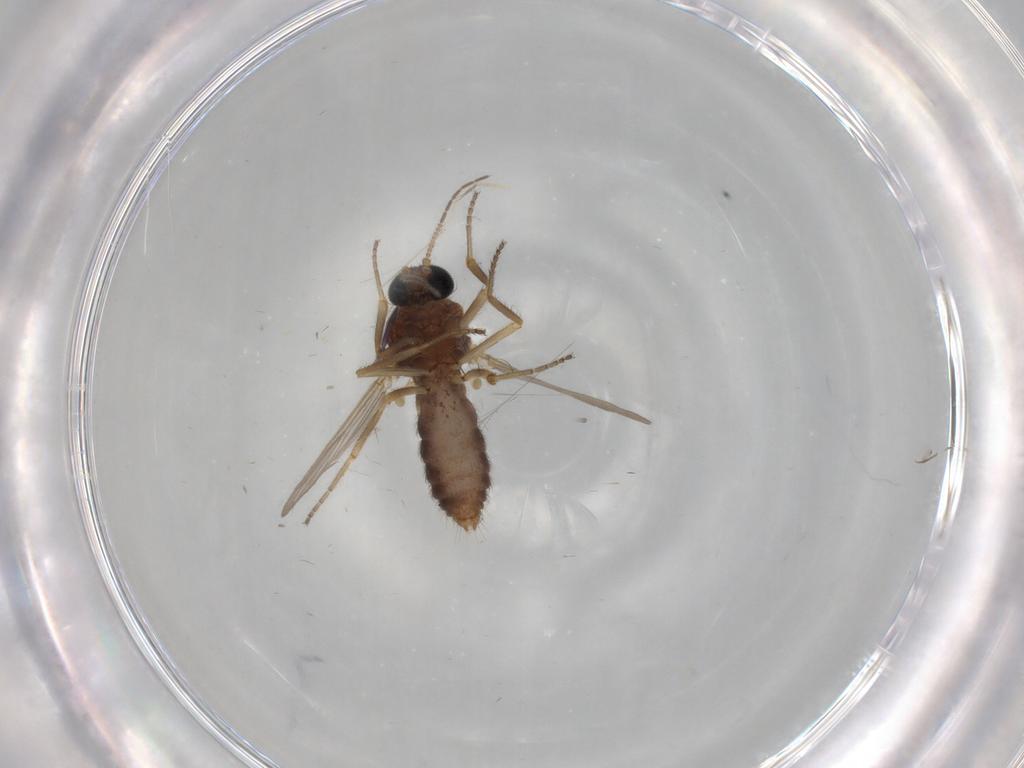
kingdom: Animalia
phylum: Arthropoda
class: Insecta
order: Diptera
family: Ceratopogonidae
